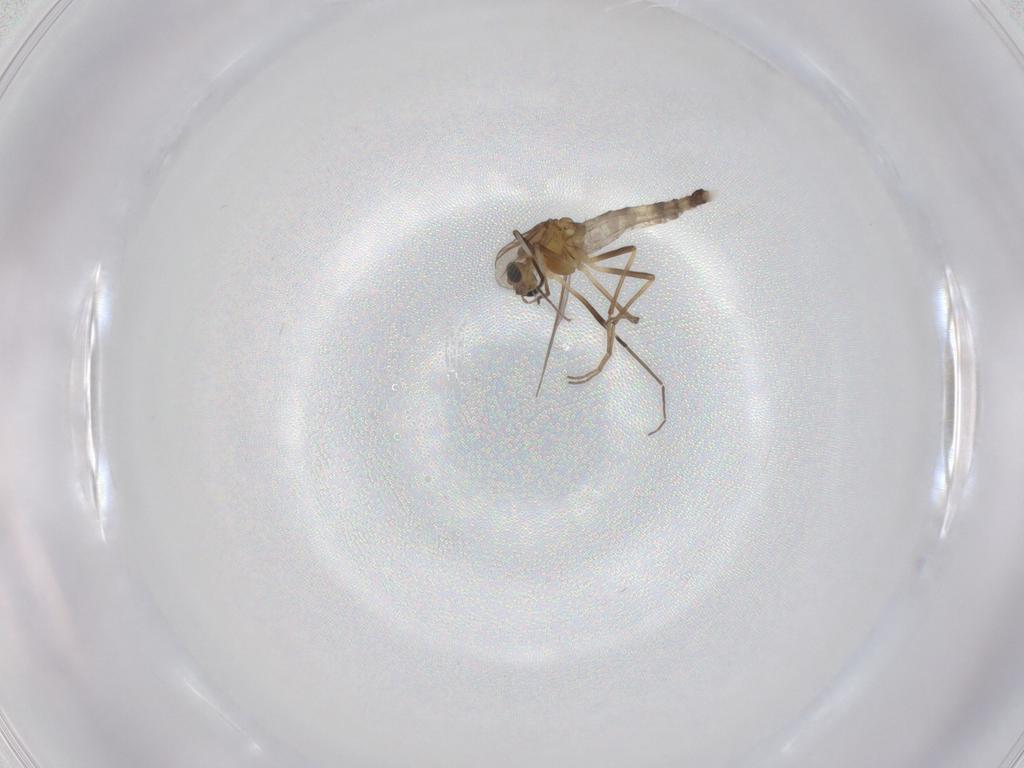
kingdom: Animalia
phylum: Arthropoda
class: Insecta
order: Diptera
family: Chironomidae
